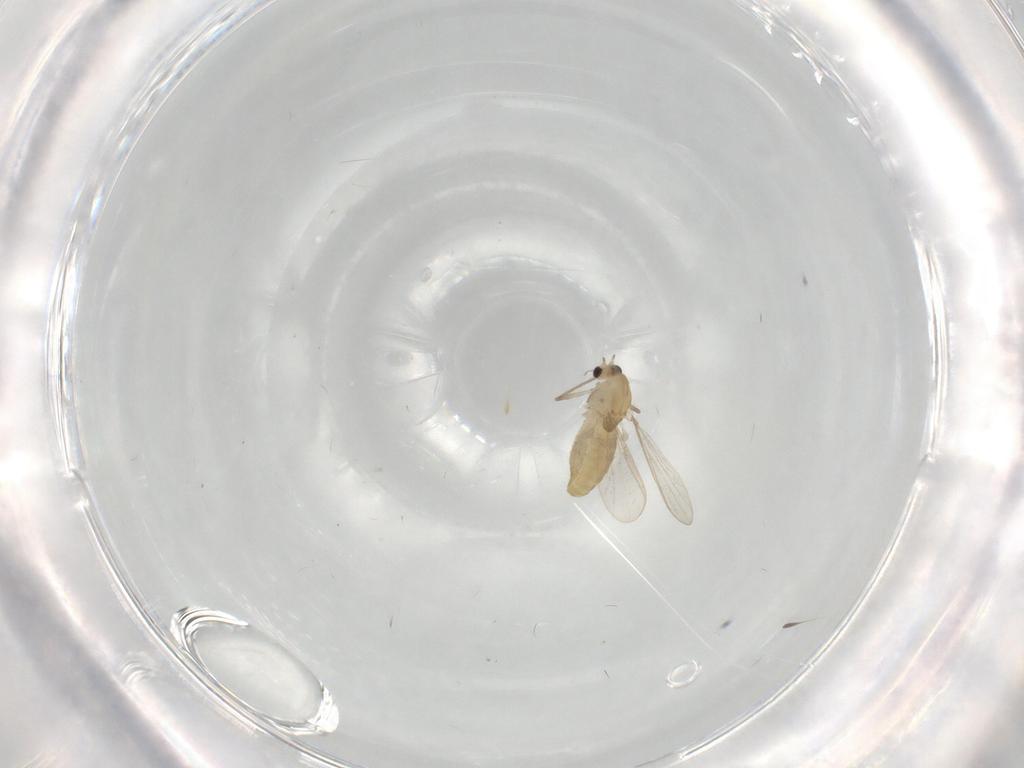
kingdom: Animalia
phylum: Arthropoda
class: Insecta
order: Diptera
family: Chironomidae
